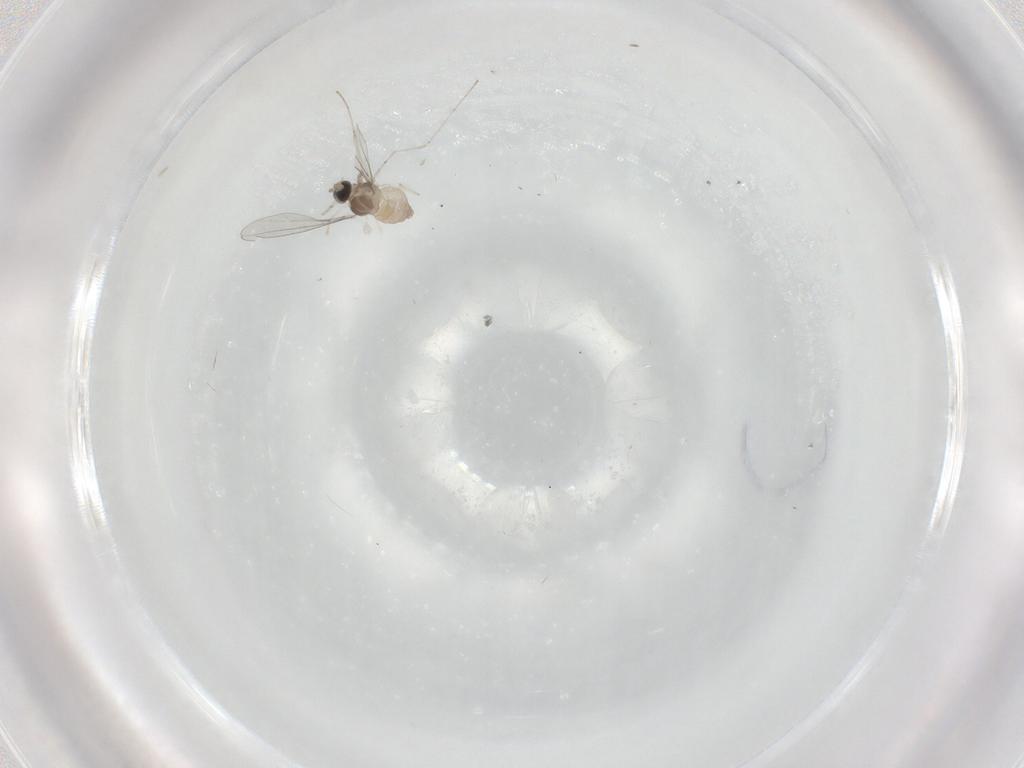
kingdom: Animalia
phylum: Arthropoda
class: Insecta
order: Diptera
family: Cecidomyiidae
